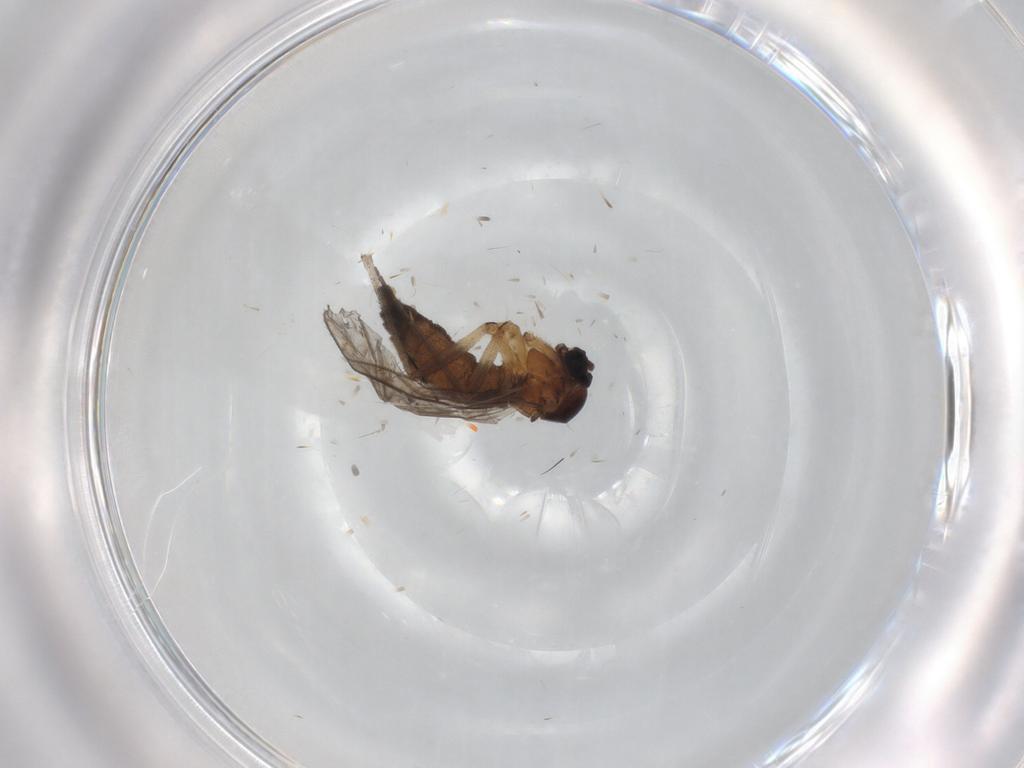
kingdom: Animalia
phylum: Arthropoda
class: Insecta
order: Diptera
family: Sciaridae
